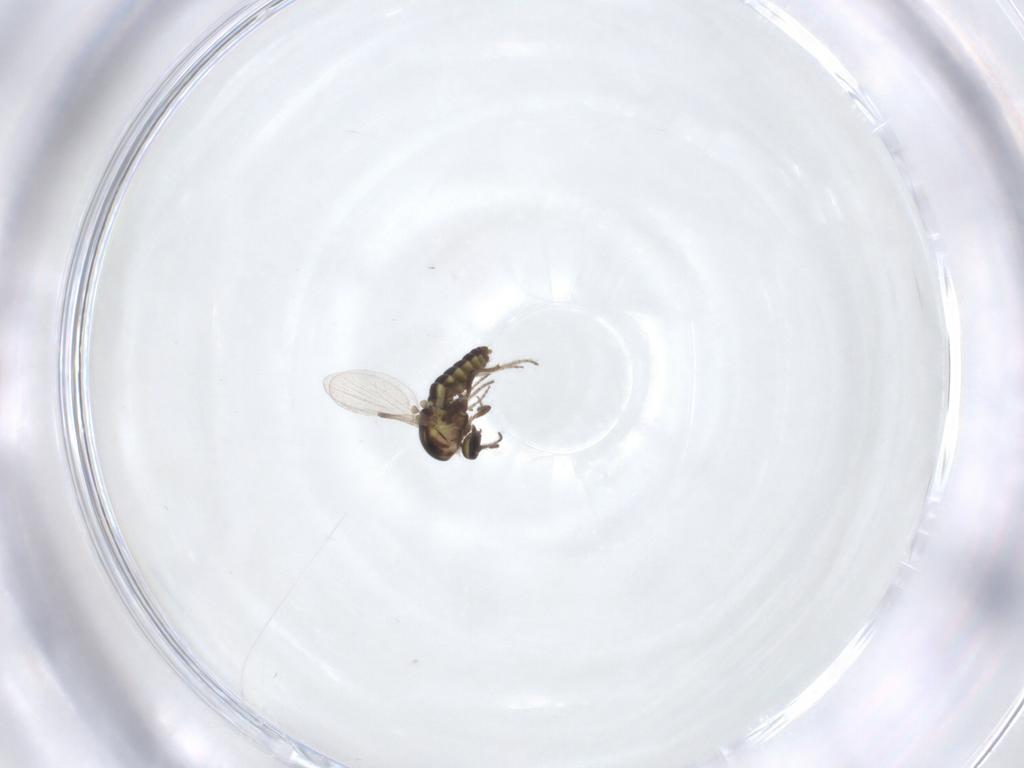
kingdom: Animalia
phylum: Arthropoda
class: Insecta
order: Diptera
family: Ceratopogonidae
